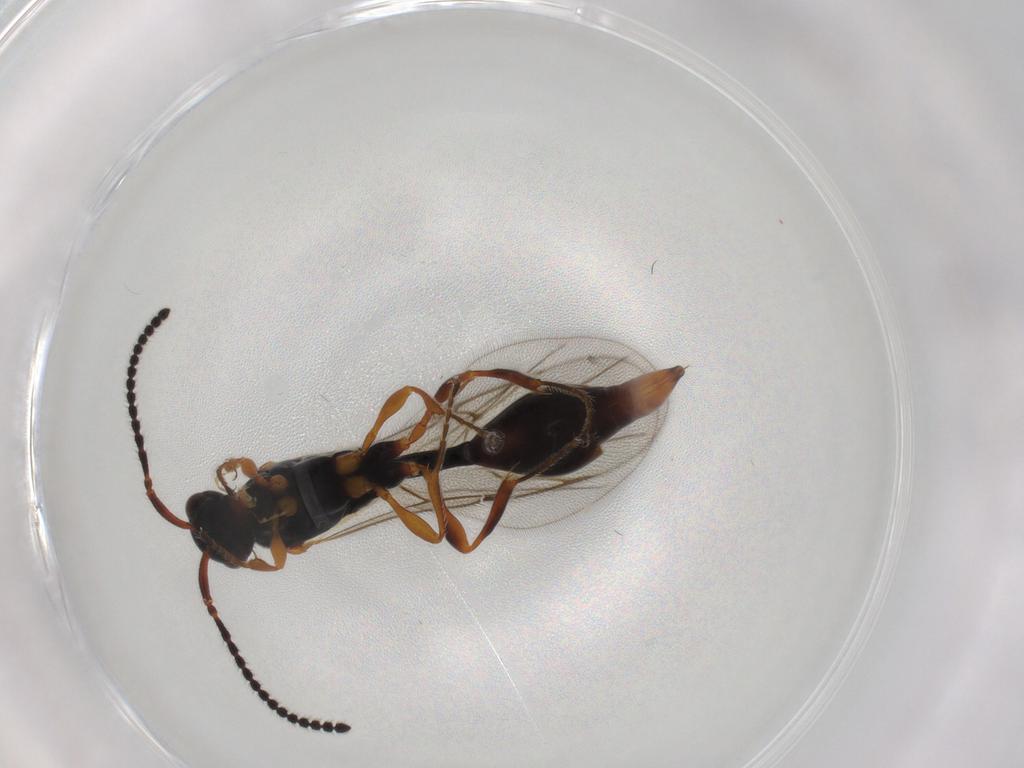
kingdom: Animalia
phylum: Arthropoda
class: Insecta
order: Hymenoptera
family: Diapriidae
